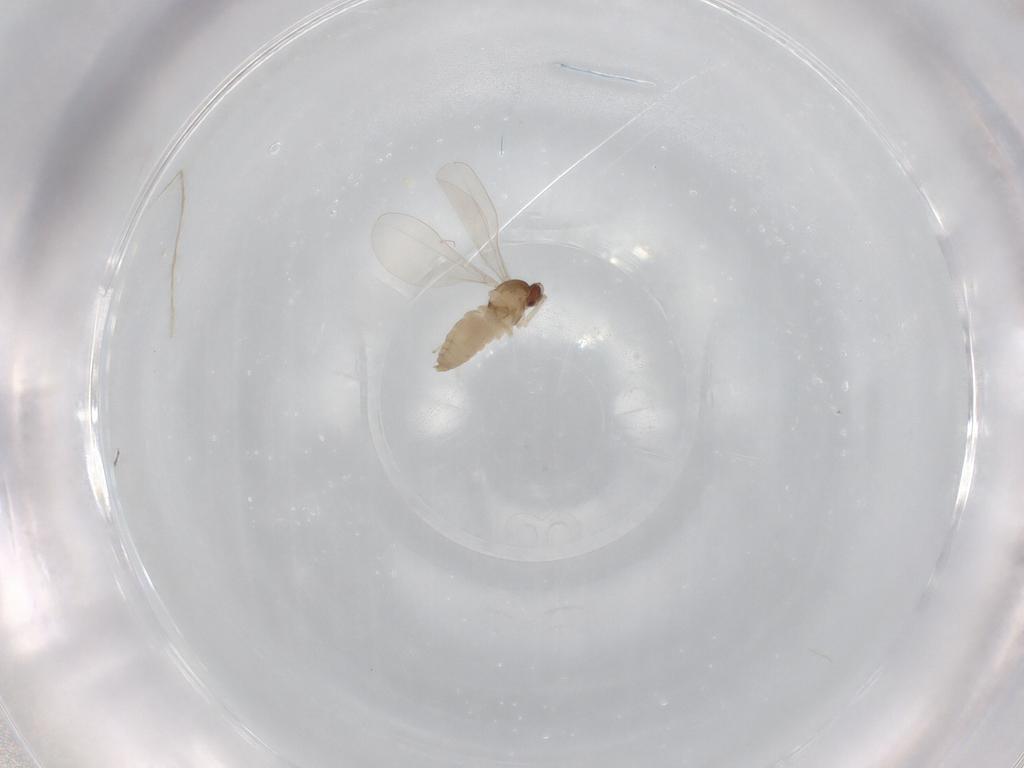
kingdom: Animalia
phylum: Arthropoda
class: Insecta
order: Diptera
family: Cecidomyiidae
